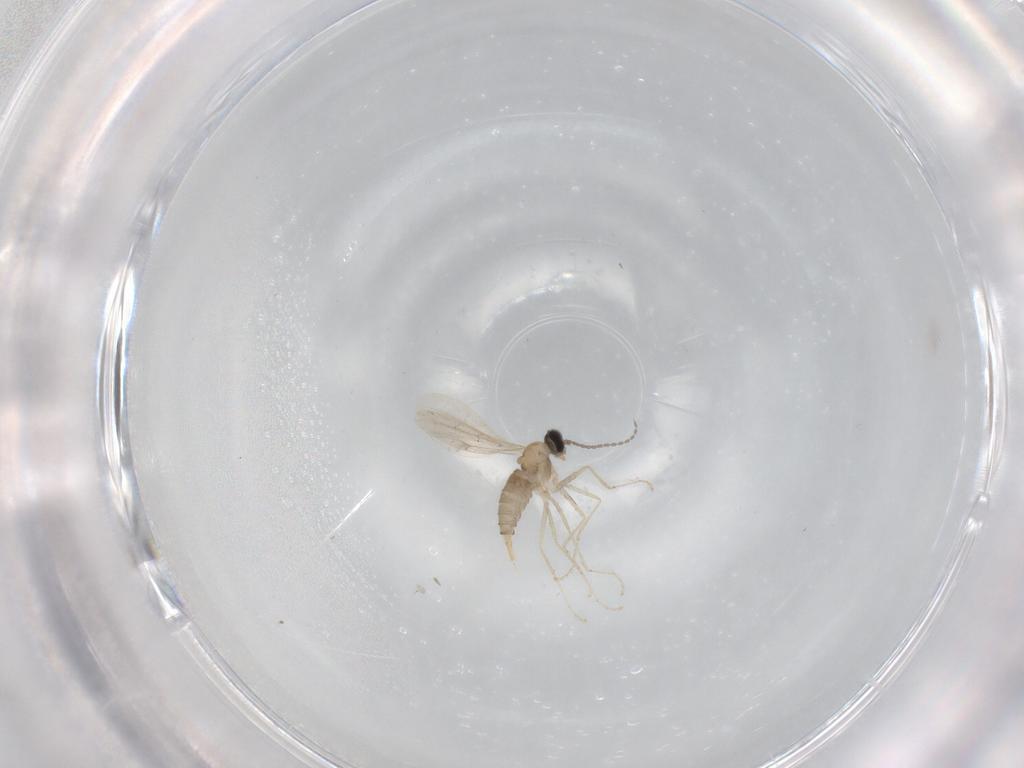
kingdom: Animalia
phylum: Arthropoda
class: Insecta
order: Diptera
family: Cecidomyiidae
